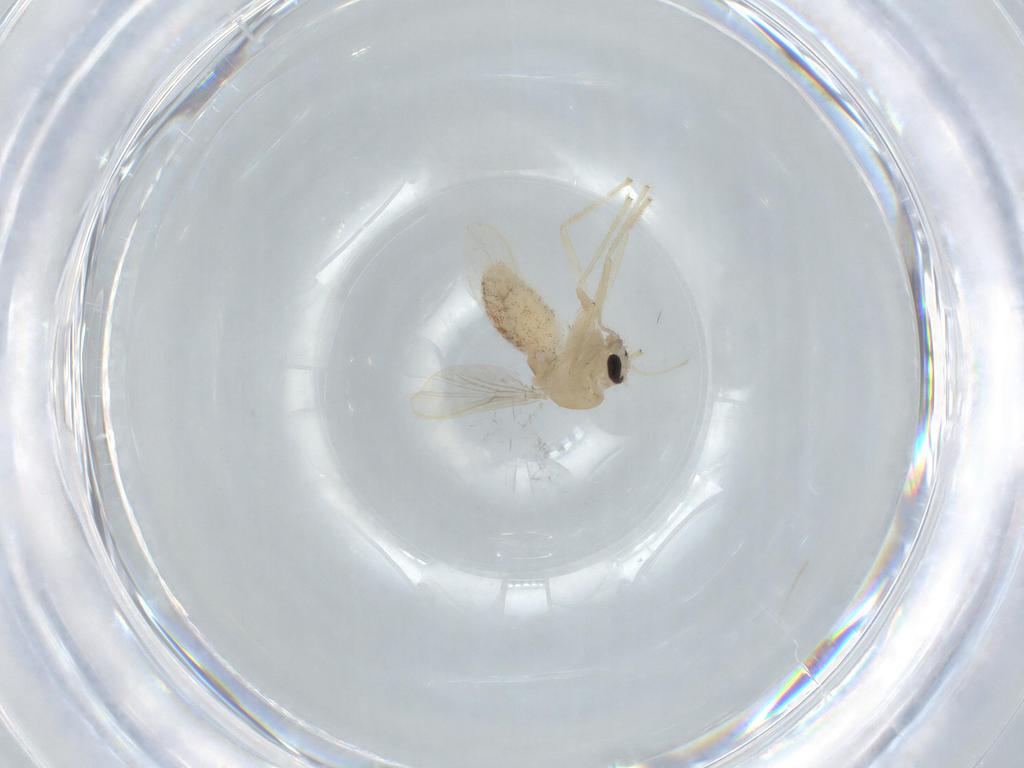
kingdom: Animalia
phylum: Arthropoda
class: Insecta
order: Diptera
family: Chironomidae
